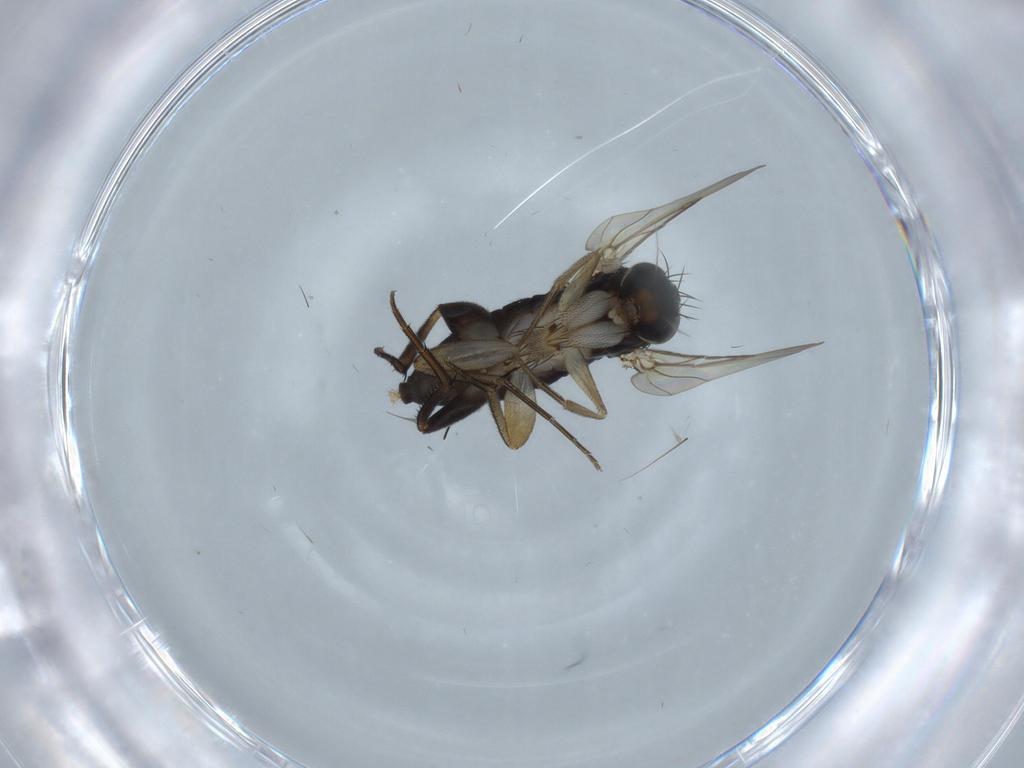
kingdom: Animalia
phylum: Arthropoda
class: Insecta
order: Diptera
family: Phoridae
